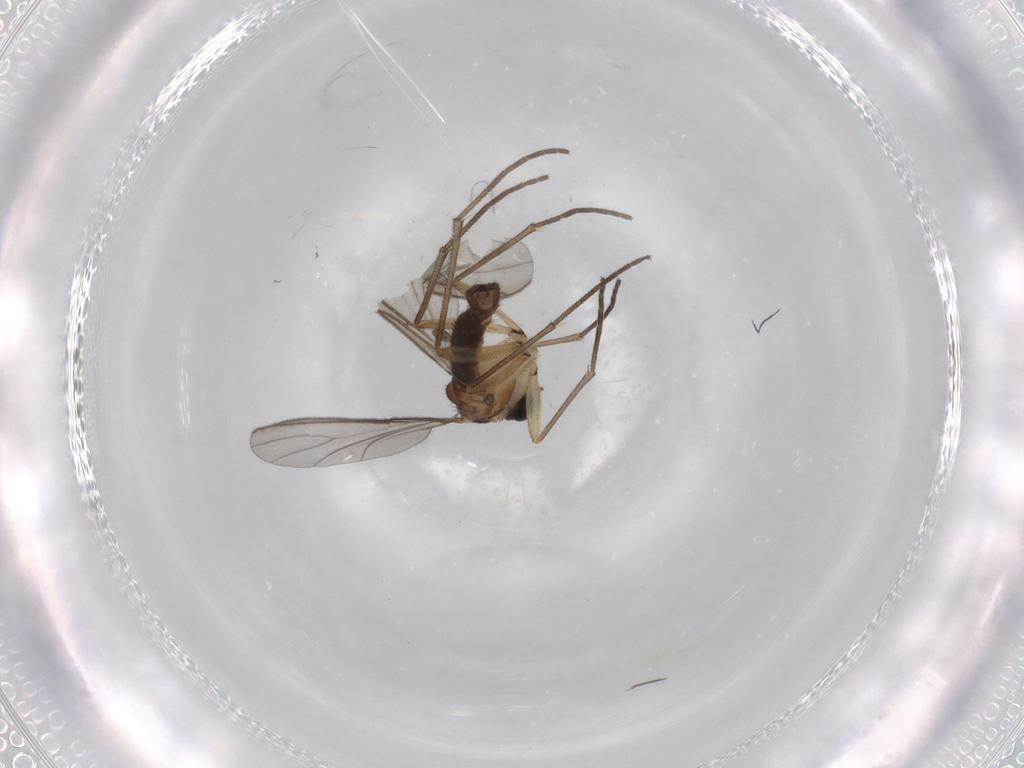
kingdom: Animalia
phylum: Arthropoda
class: Insecta
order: Diptera
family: Sciaridae
